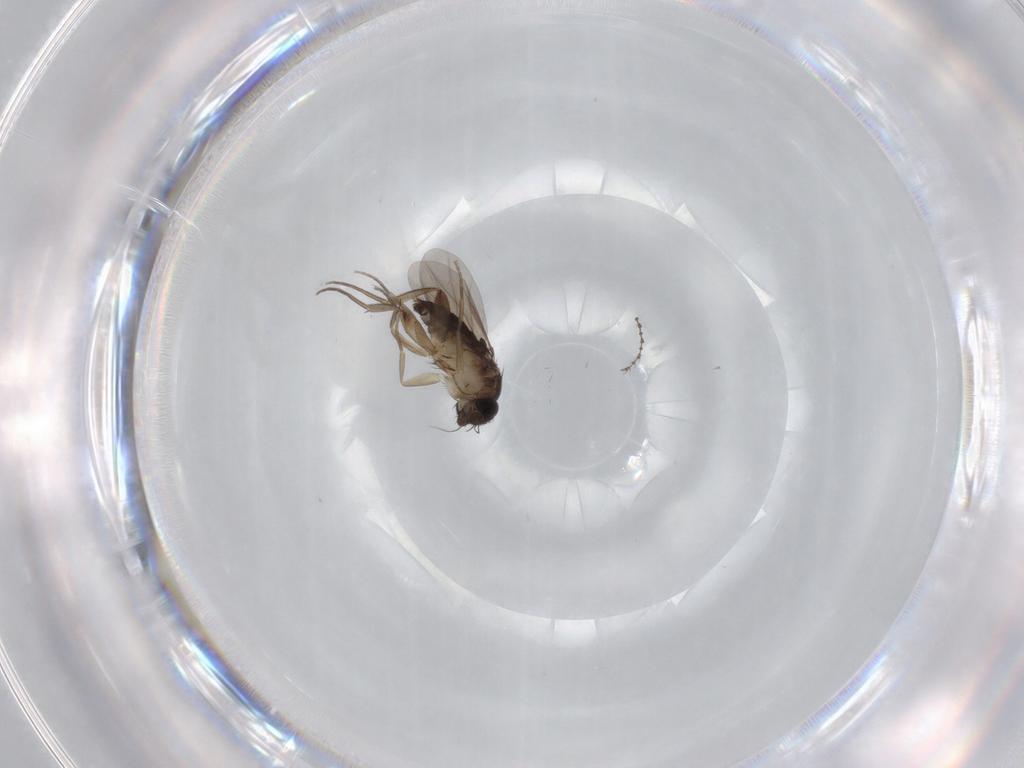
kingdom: Animalia
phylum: Arthropoda
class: Insecta
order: Diptera
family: Phoridae
